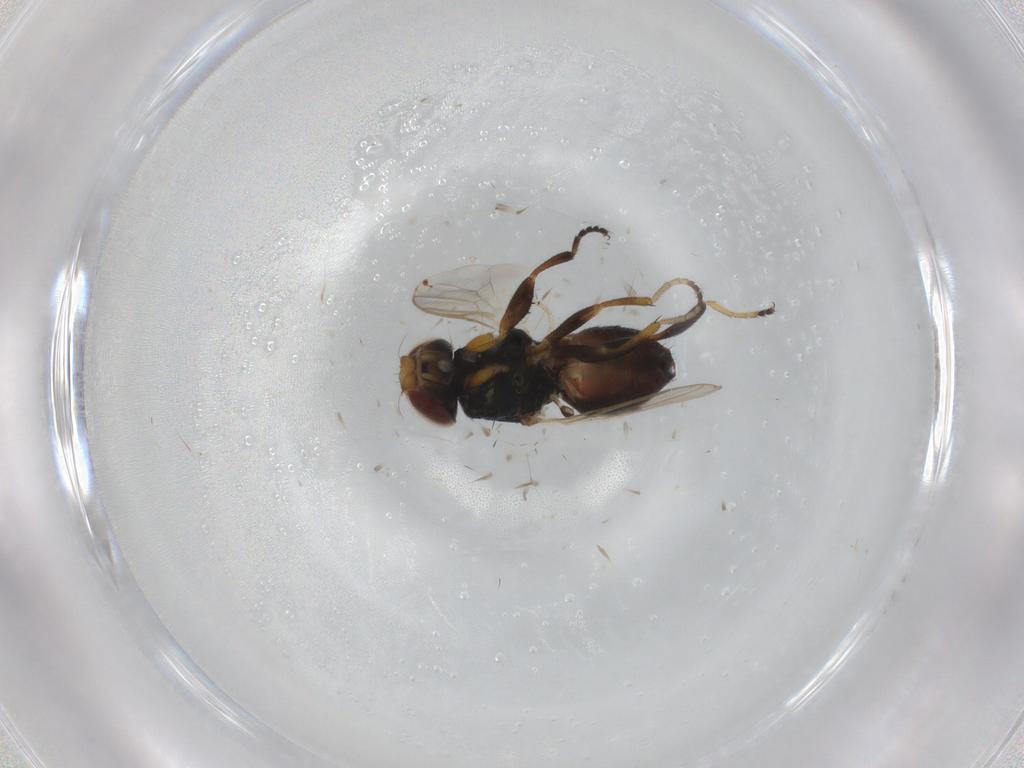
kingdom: Animalia
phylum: Arthropoda
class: Insecta
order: Diptera
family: Chloropidae
